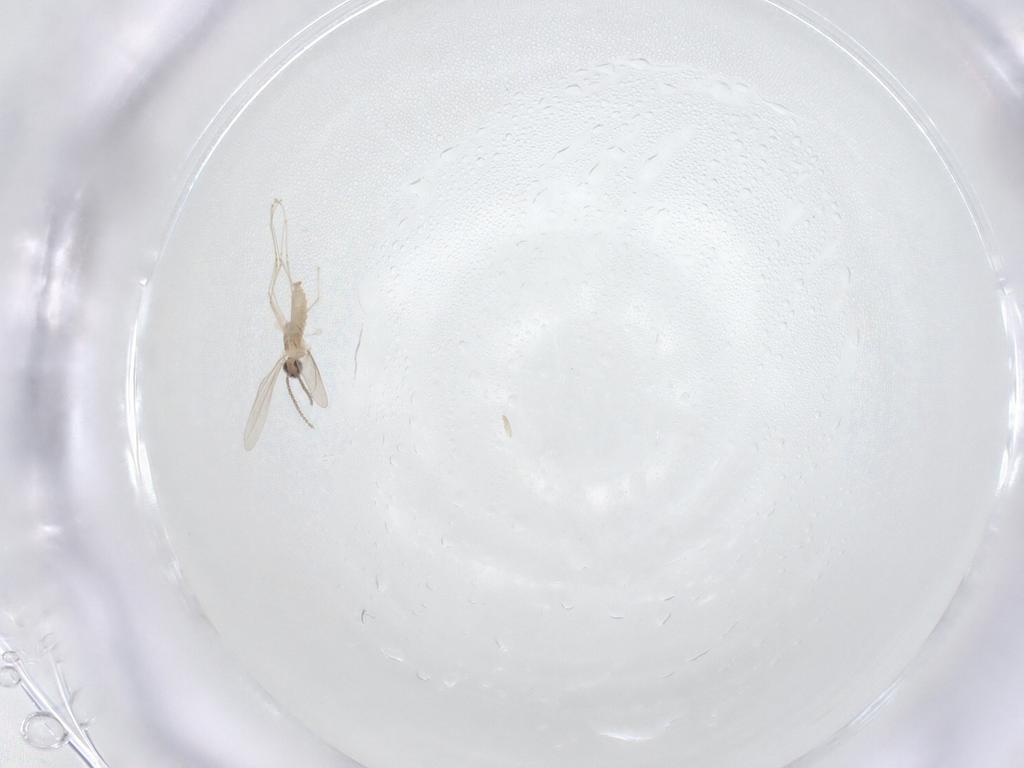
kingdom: Animalia
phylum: Arthropoda
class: Insecta
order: Diptera
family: Cecidomyiidae
